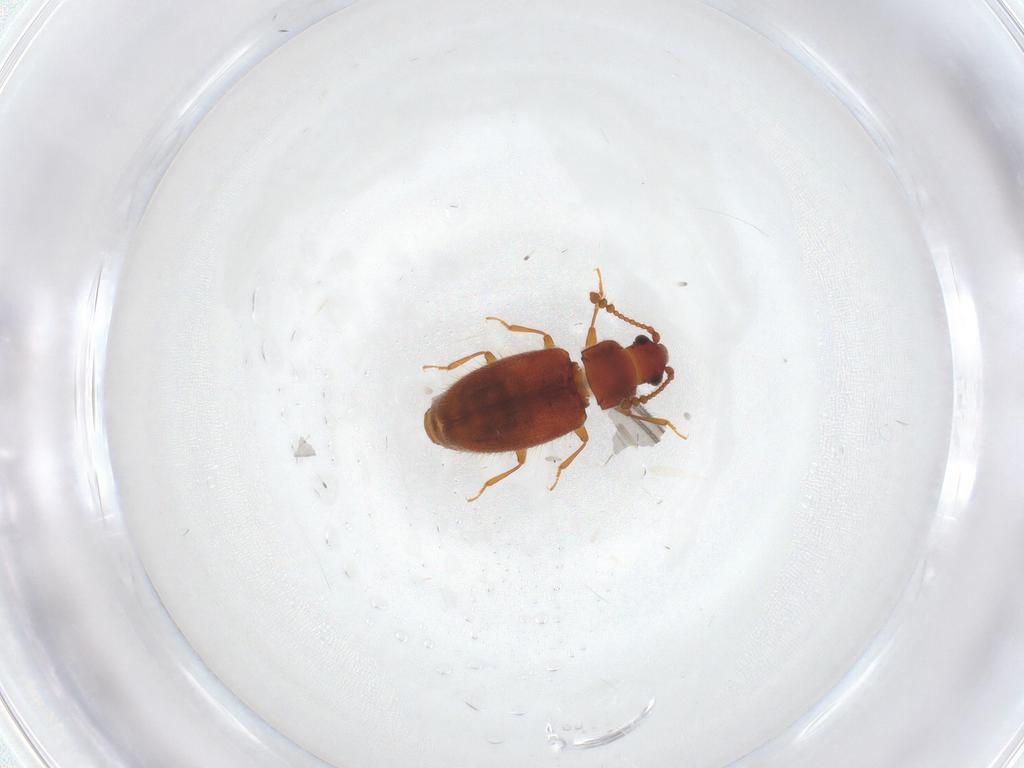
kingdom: Animalia
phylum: Arthropoda
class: Insecta
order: Coleoptera
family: Cryptophagidae
